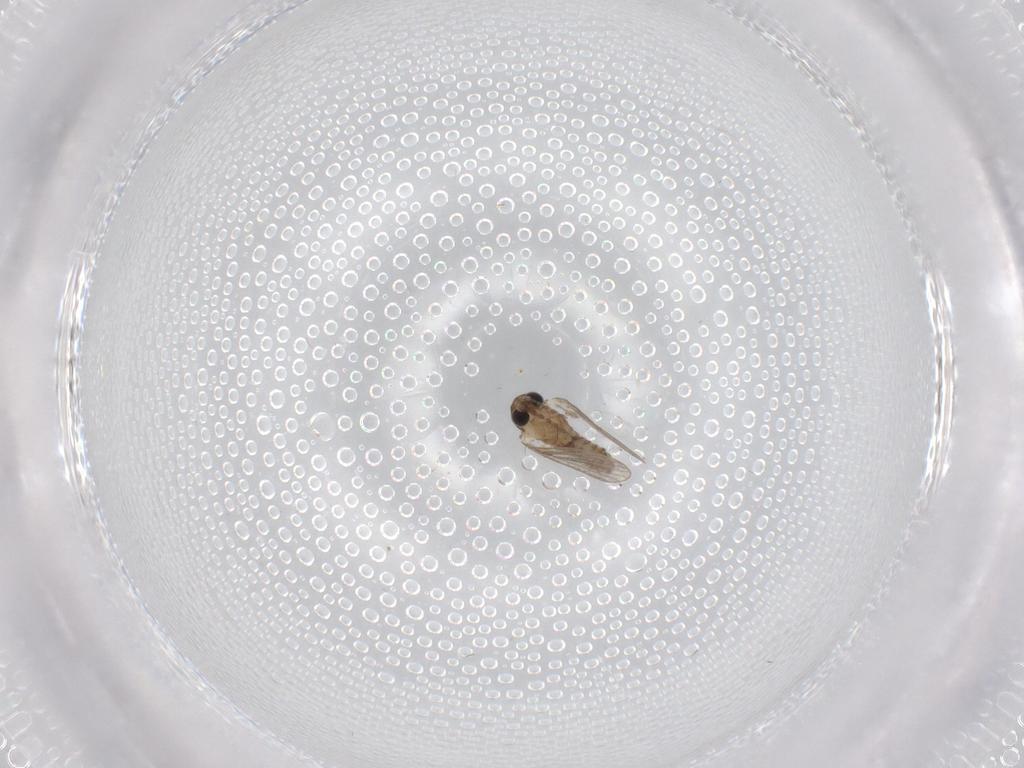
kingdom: Animalia
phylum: Arthropoda
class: Insecta
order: Diptera
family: Psychodidae
